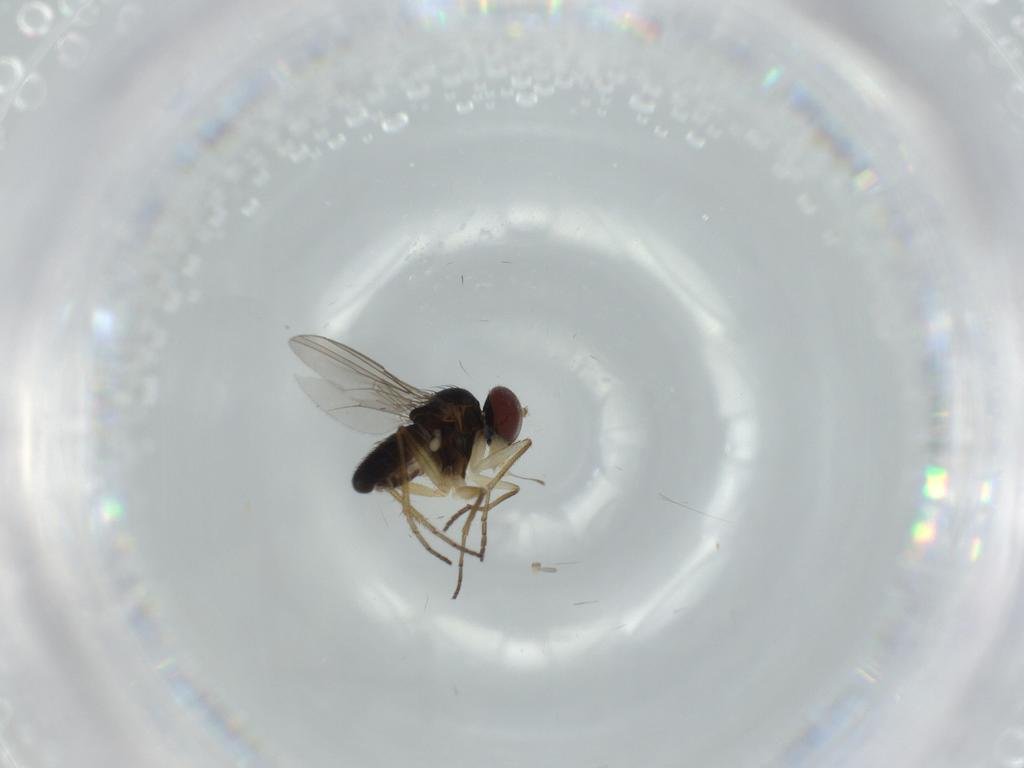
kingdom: Animalia
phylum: Arthropoda
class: Insecta
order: Diptera
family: Dolichopodidae
